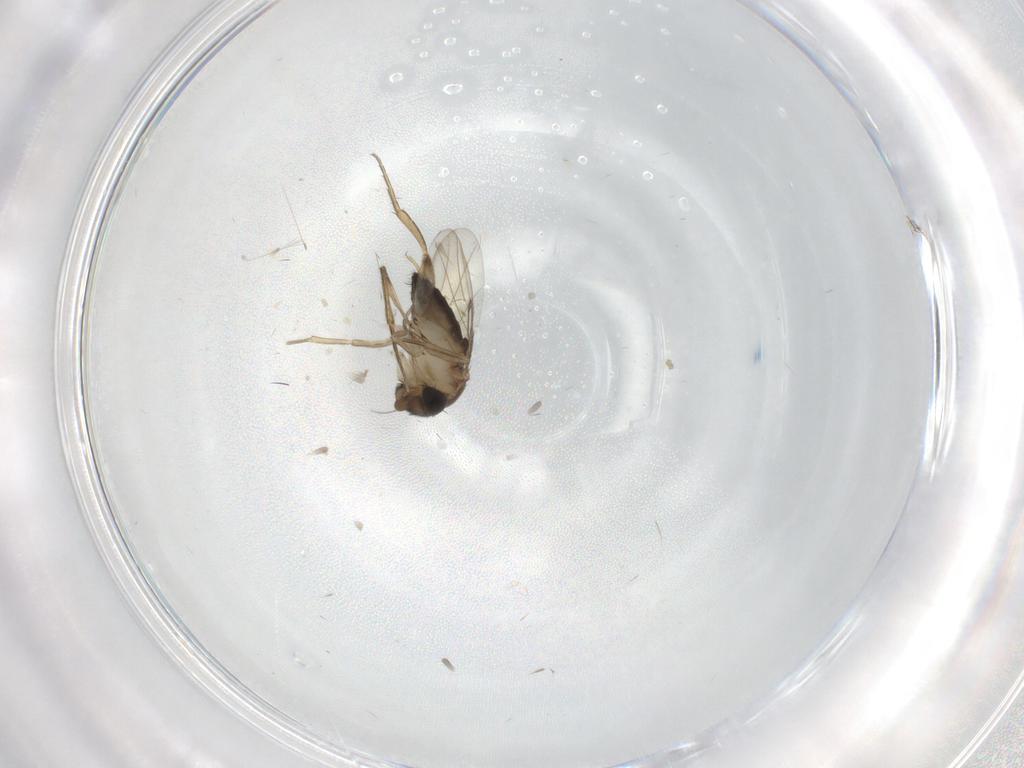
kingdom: Animalia
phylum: Arthropoda
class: Insecta
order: Diptera
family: Phoridae
